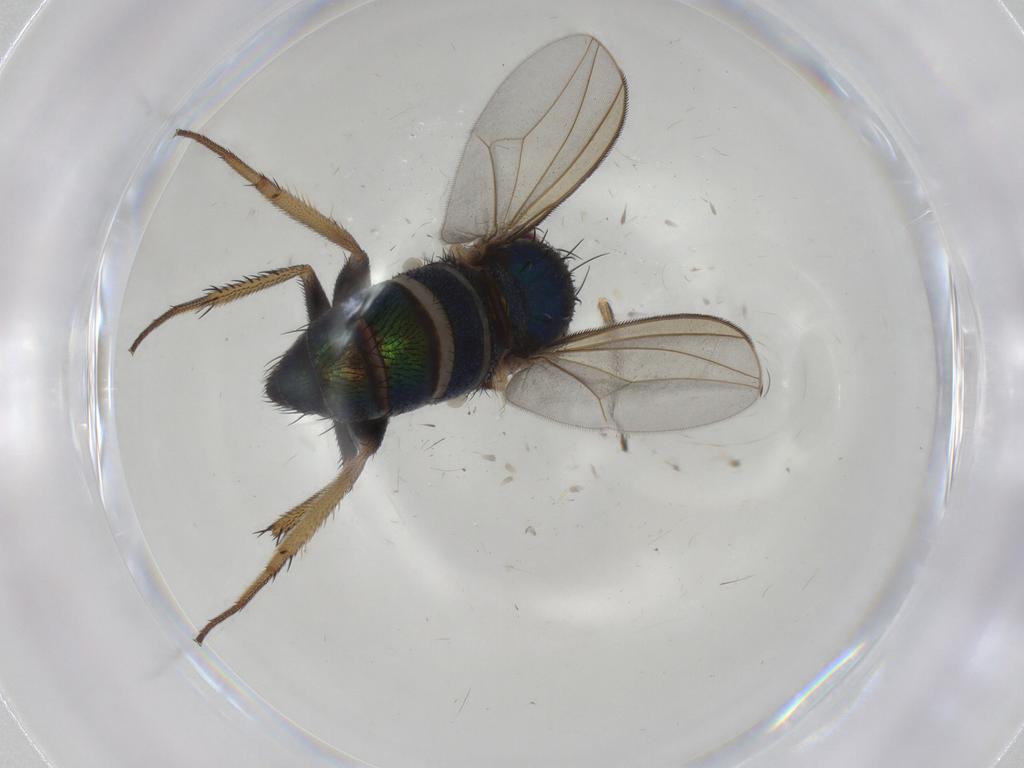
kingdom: Animalia
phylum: Arthropoda
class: Insecta
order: Diptera
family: Dolichopodidae
